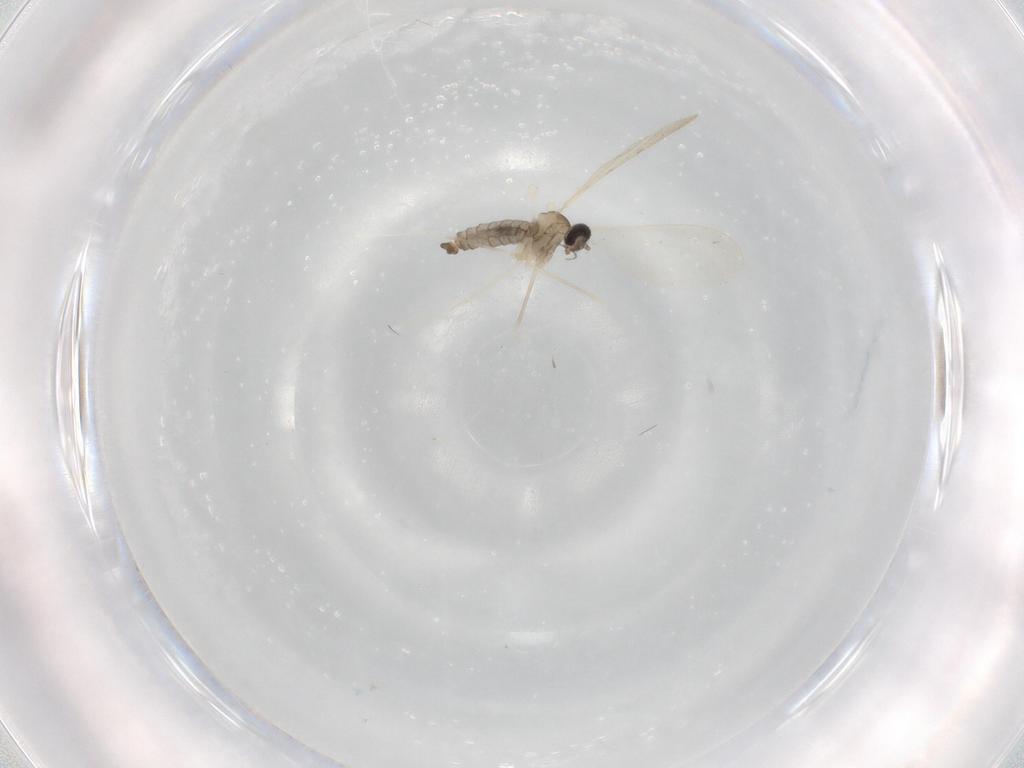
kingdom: Animalia
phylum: Arthropoda
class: Insecta
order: Diptera
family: Cecidomyiidae
